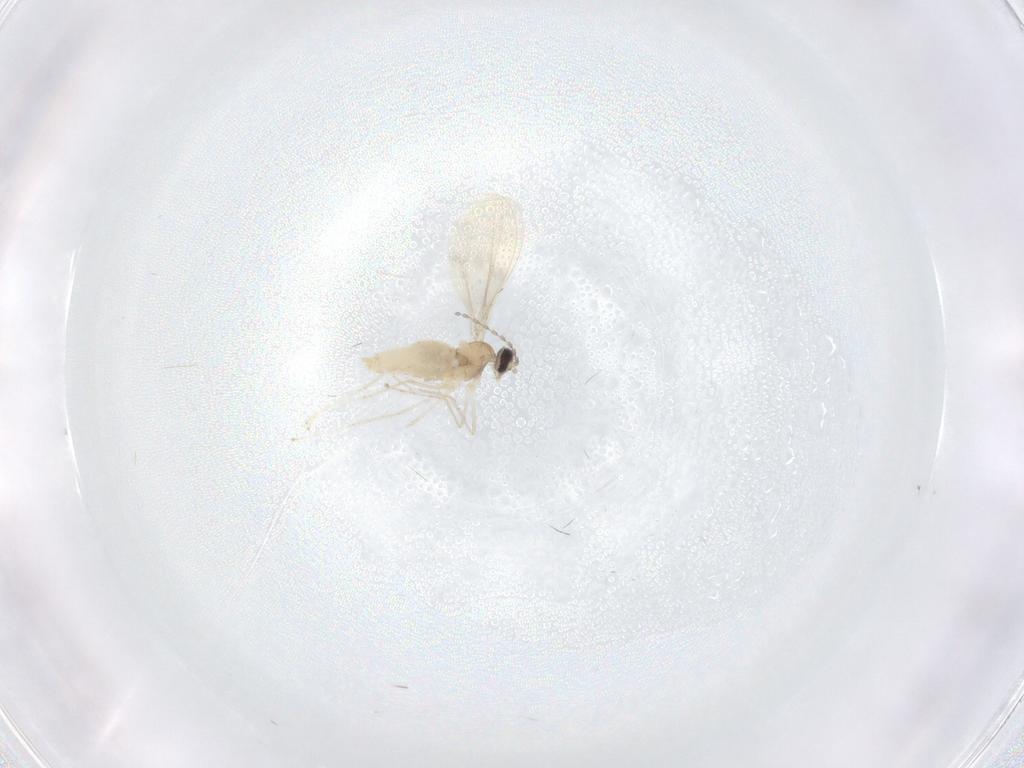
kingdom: Animalia
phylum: Arthropoda
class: Insecta
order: Diptera
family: Cecidomyiidae
